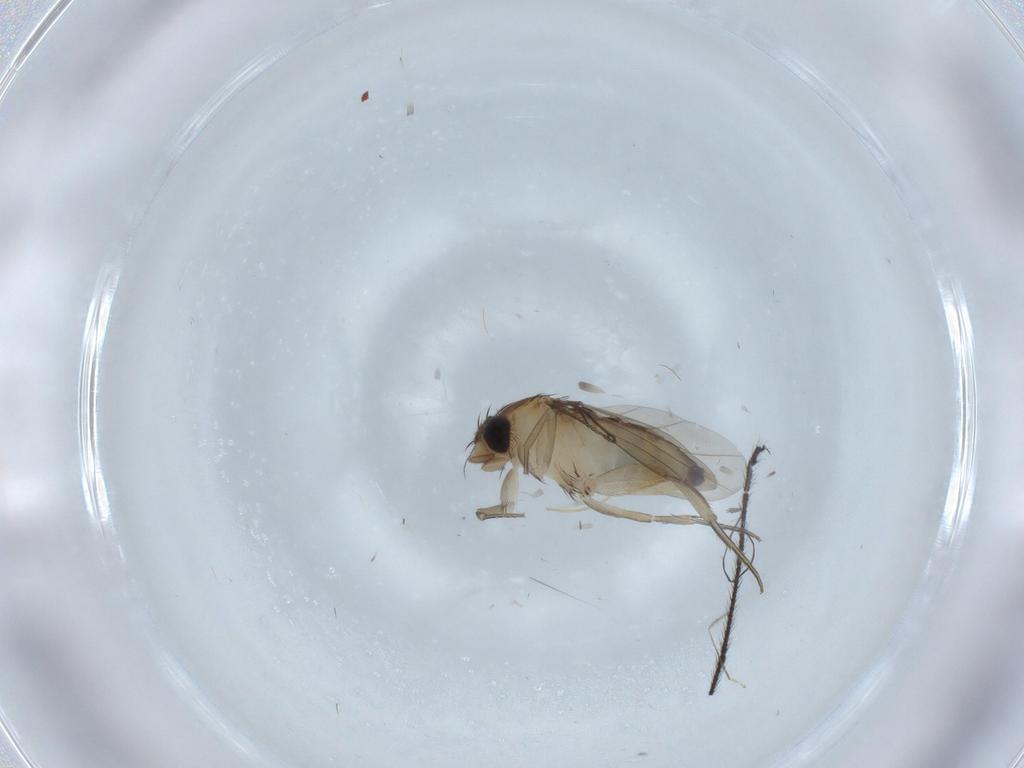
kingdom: Animalia
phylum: Arthropoda
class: Insecta
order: Diptera
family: Phoridae
